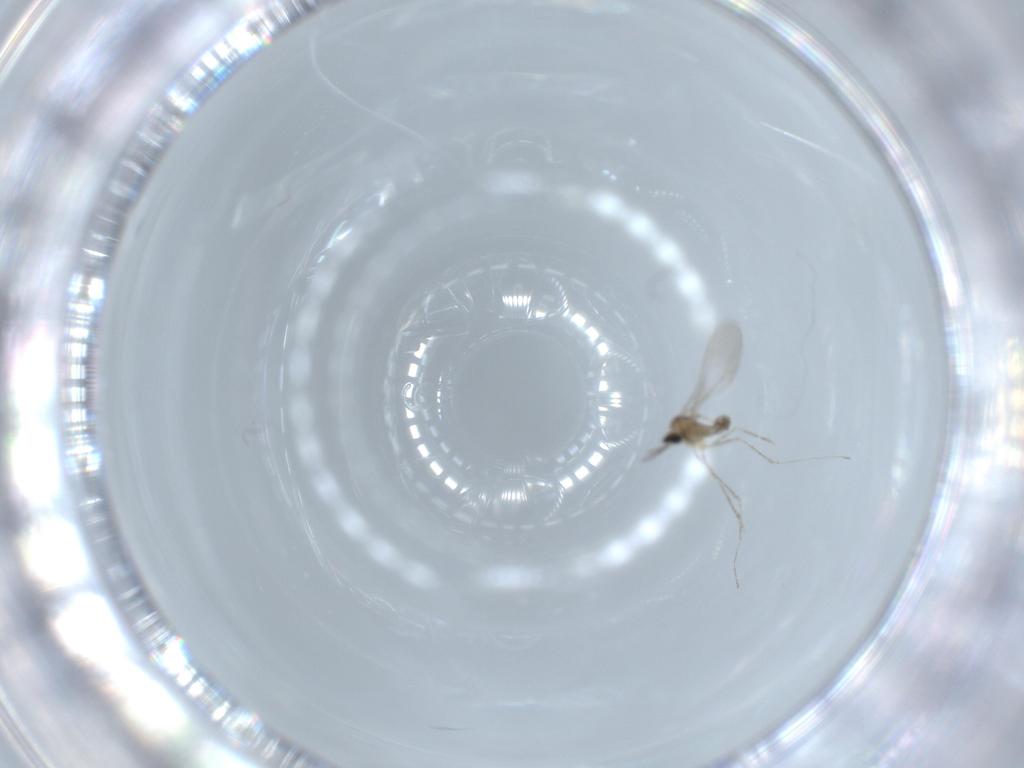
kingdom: Animalia
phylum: Arthropoda
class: Insecta
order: Diptera
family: Cecidomyiidae
